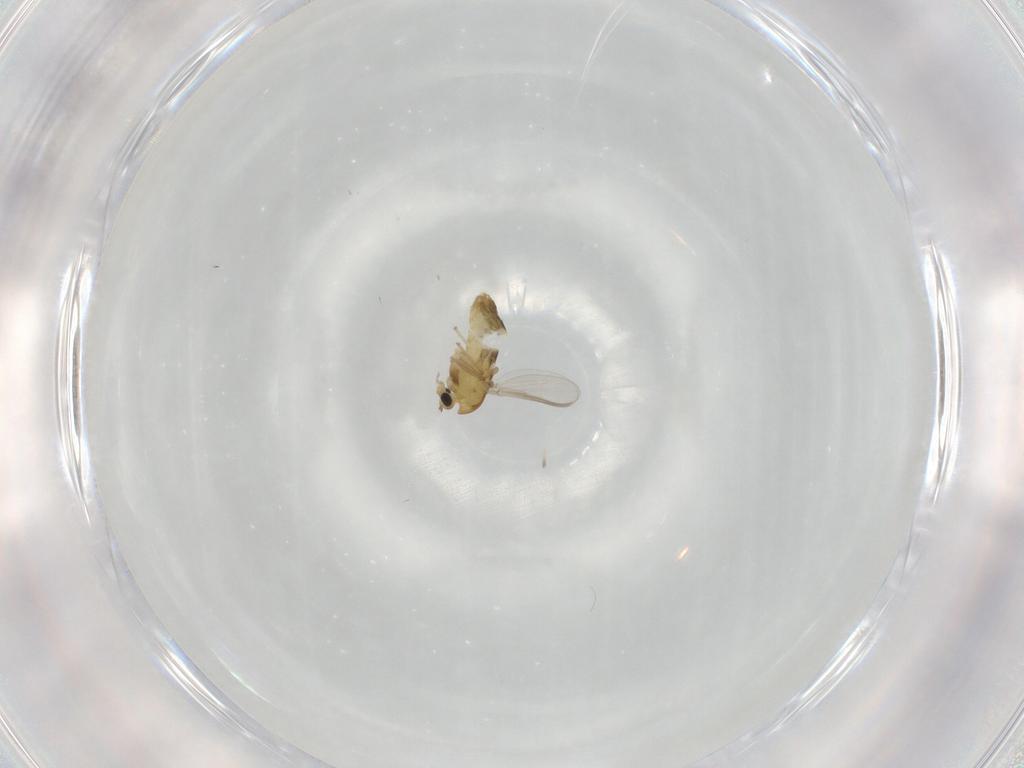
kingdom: Animalia
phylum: Arthropoda
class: Insecta
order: Diptera
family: Chironomidae
